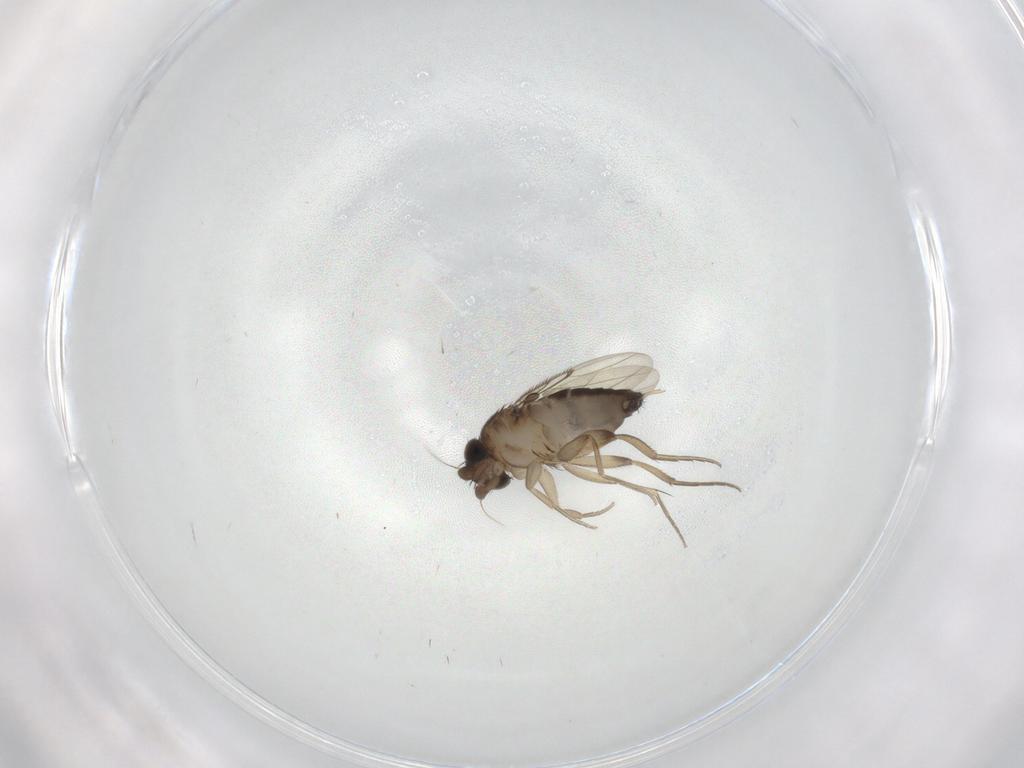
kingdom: Animalia
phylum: Arthropoda
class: Insecta
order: Diptera
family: Phoridae
